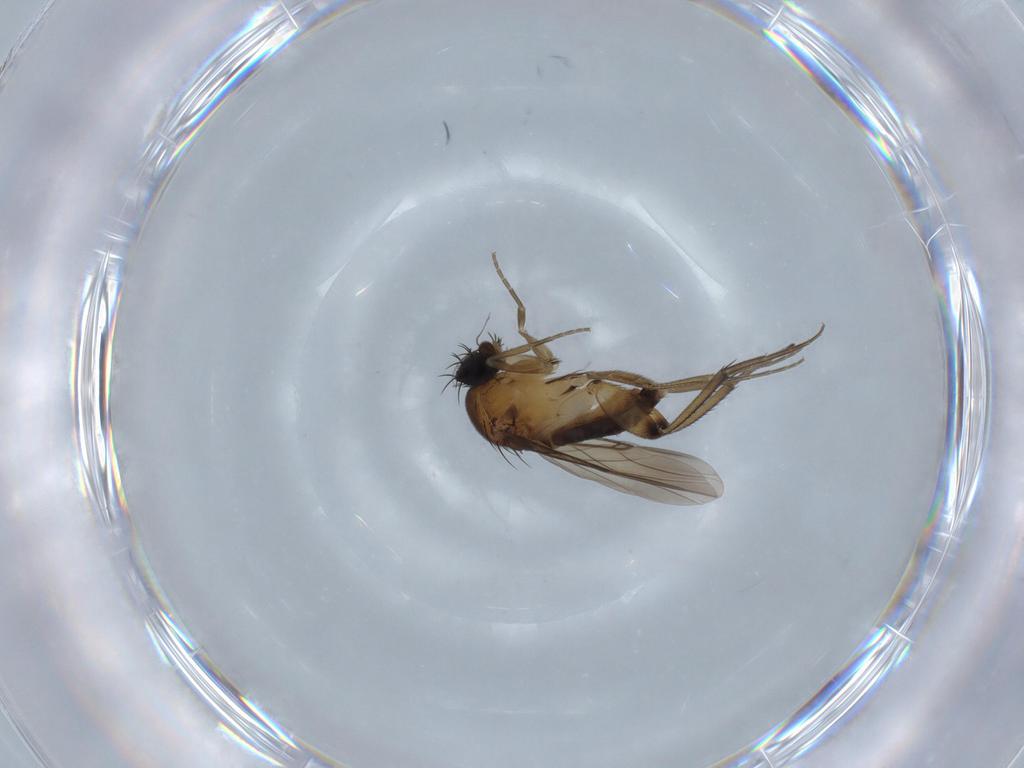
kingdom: Animalia
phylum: Arthropoda
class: Insecta
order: Diptera
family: Phoridae
